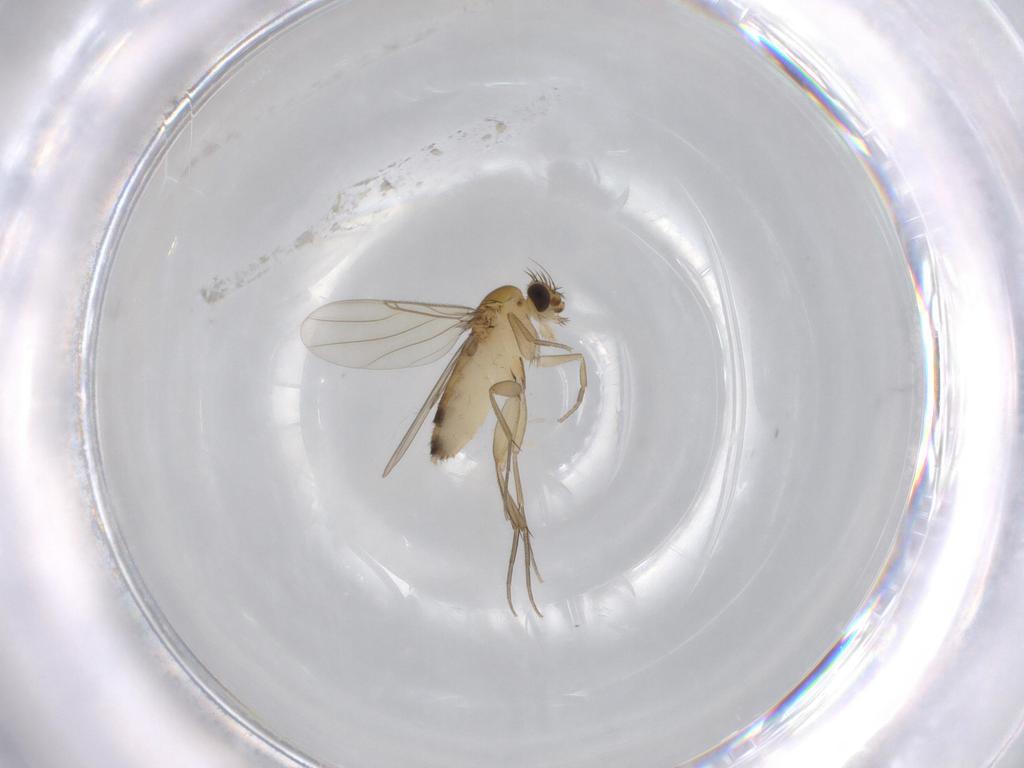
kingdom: Animalia
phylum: Arthropoda
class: Insecta
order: Diptera
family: Phoridae
